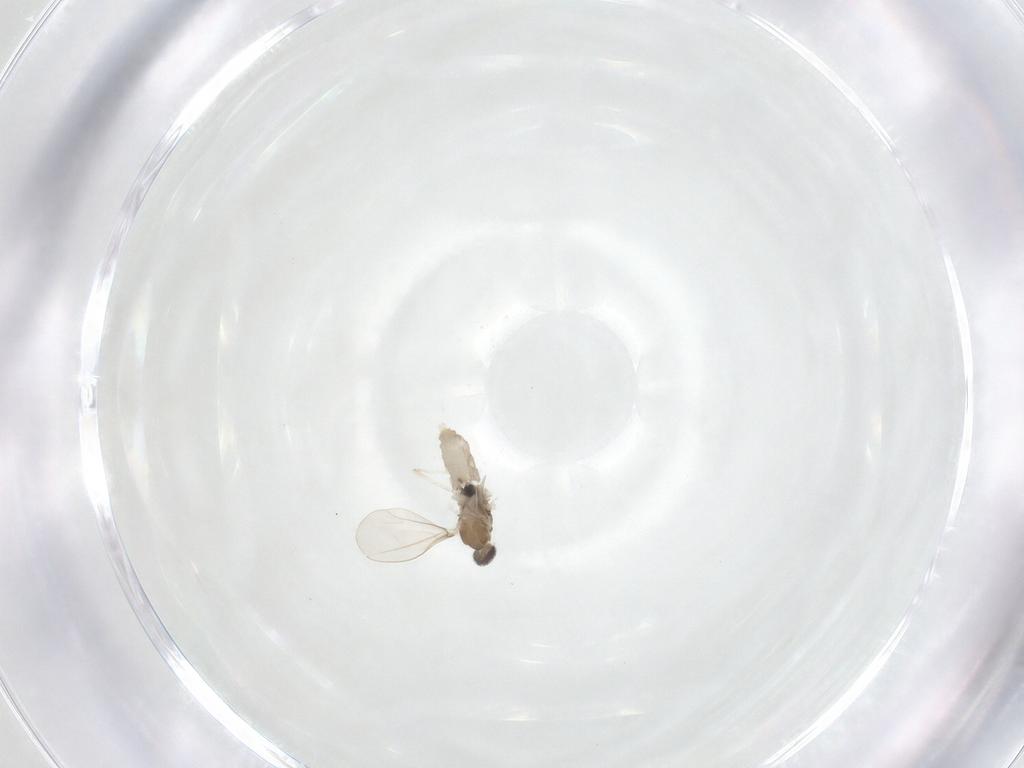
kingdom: Animalia
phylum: Arthropoda
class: Insecta
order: Diptera
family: Cecidomyiidae
